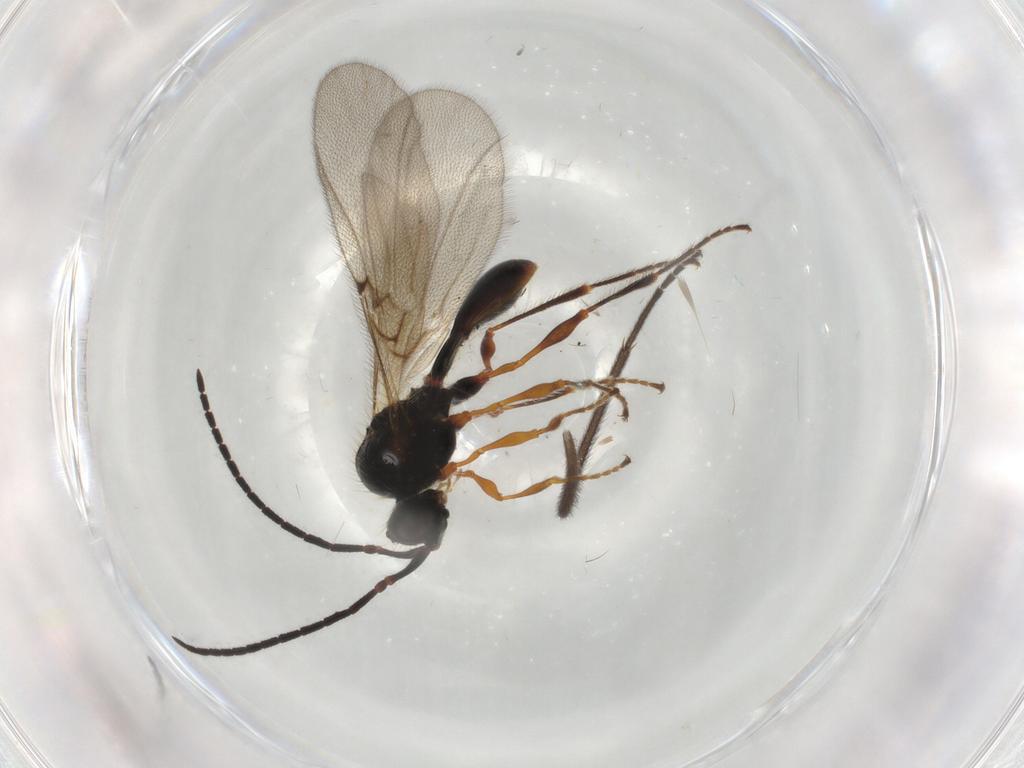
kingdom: Animalia
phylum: Arthropoda
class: Insecta
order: Hymenoptera
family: Diapriidae
